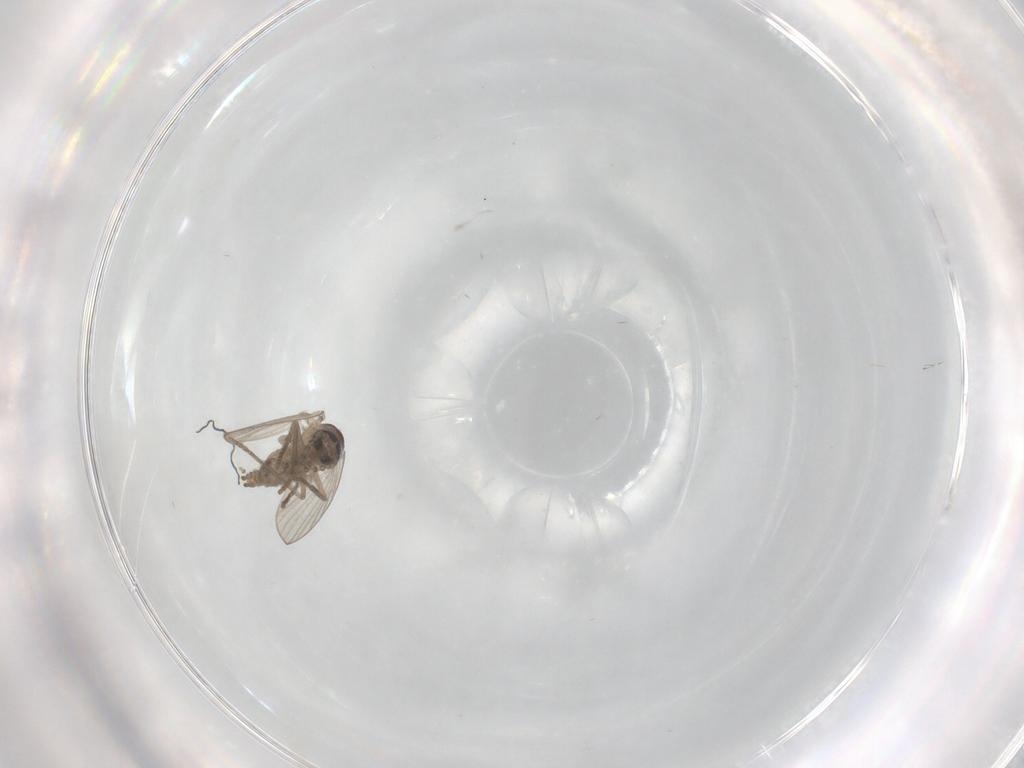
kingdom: Animalia
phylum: Arthropoda
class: Insecta
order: Diptera
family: Psychodidae
